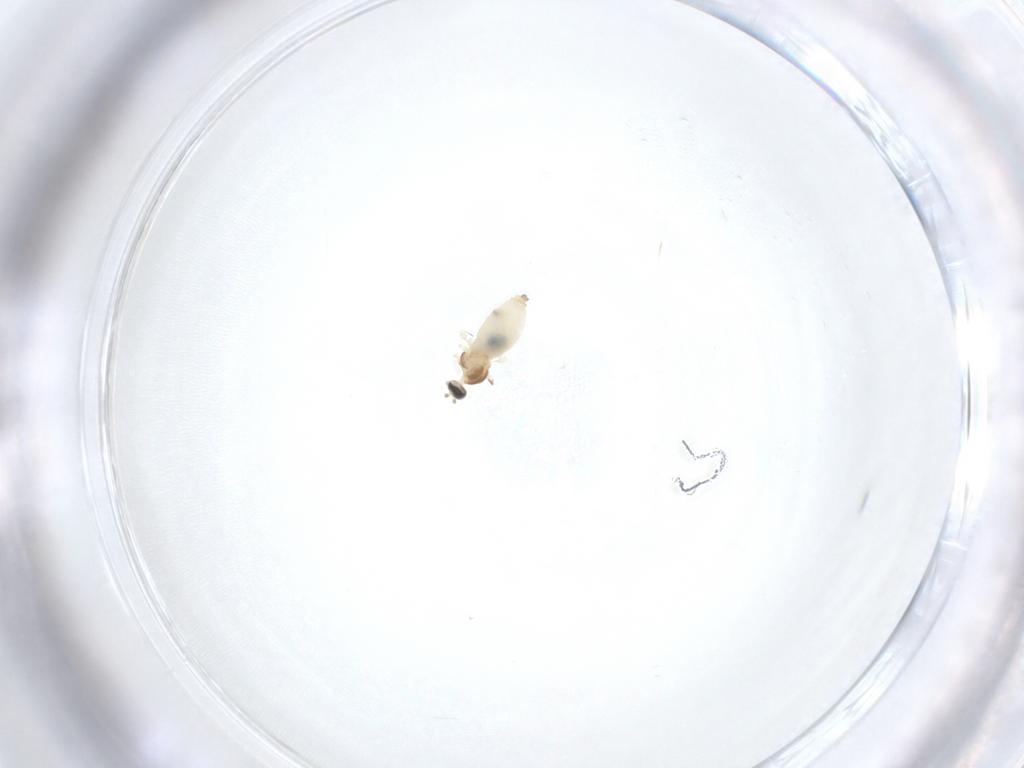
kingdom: Animalia
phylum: Arthropoda
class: Insecta
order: Diptera
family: Cecidomyiidae
